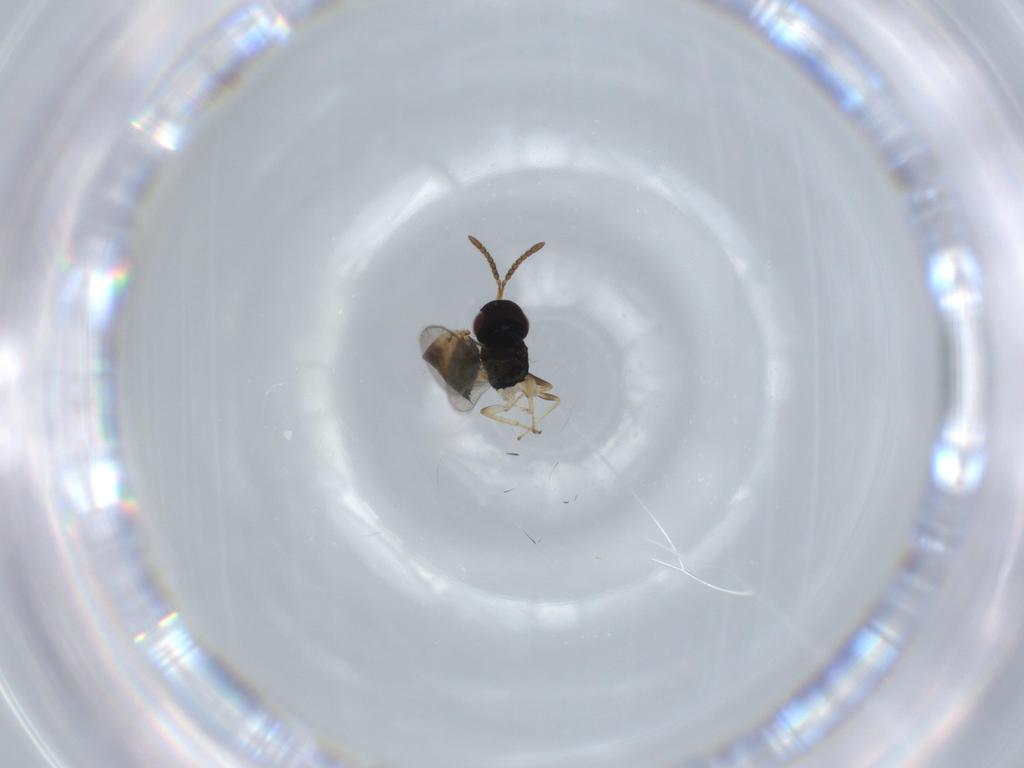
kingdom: Animalia
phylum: Arthropoda
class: Insecta
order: Hymenoptera
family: Pteromalidae
